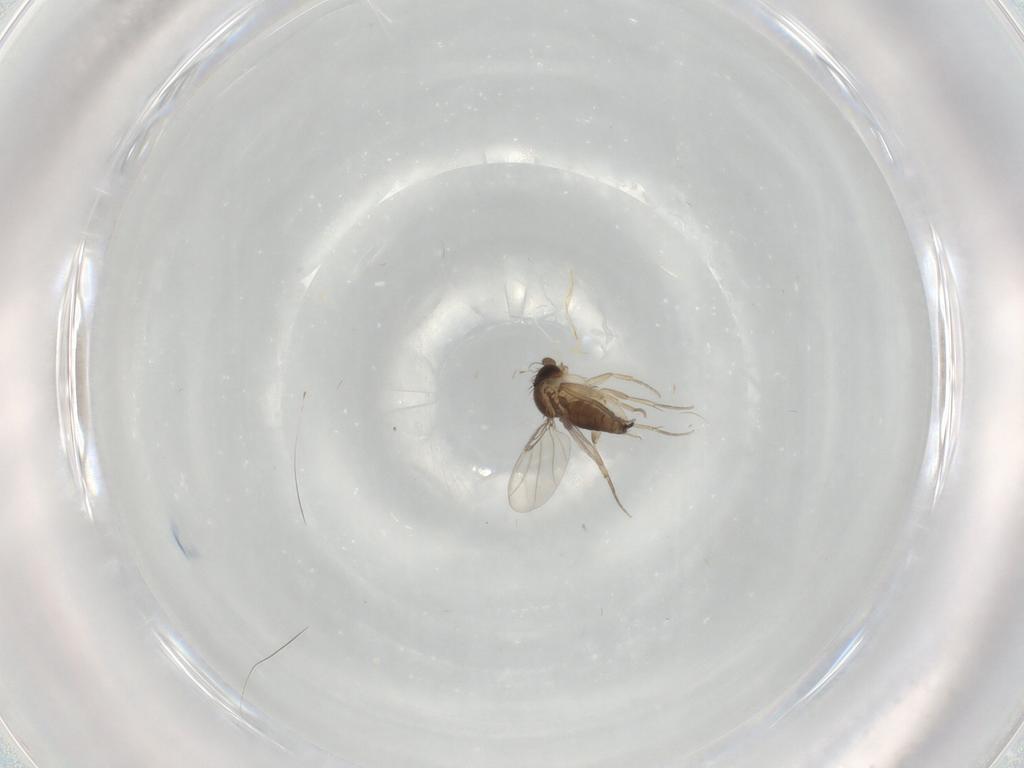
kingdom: Animalia
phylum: Arthropoda
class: Insecta
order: Diptera
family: Phoridae
